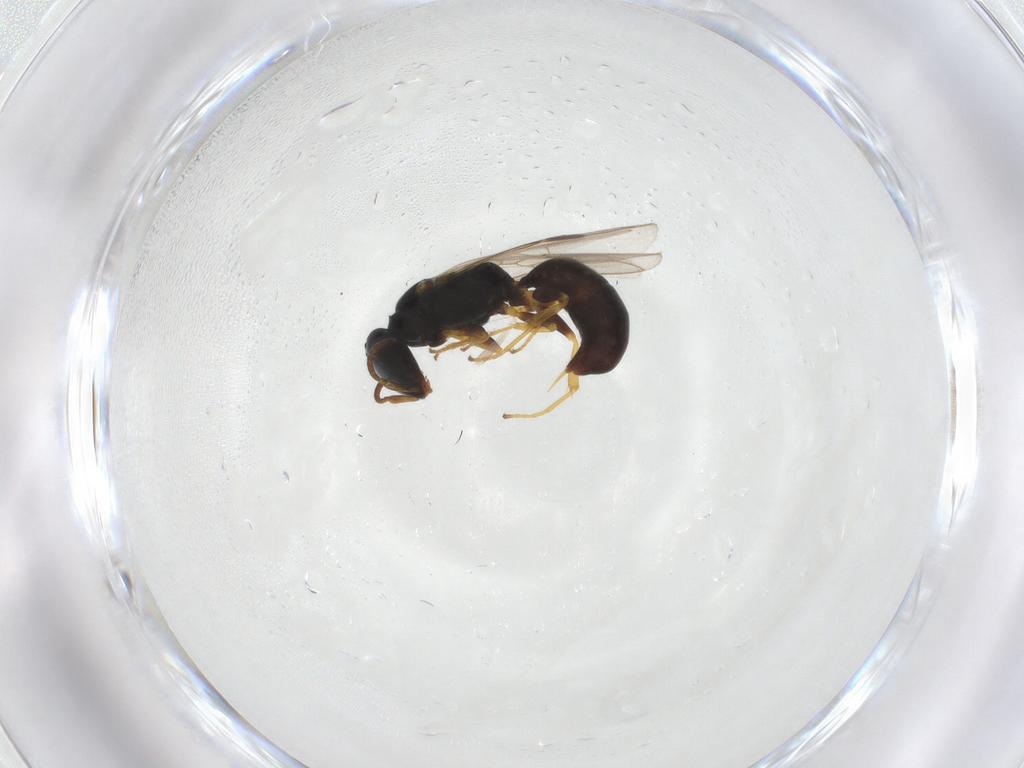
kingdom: Animalia
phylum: Arthropoda
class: Insecta
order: Hymenoptera
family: Pemphredonidae
